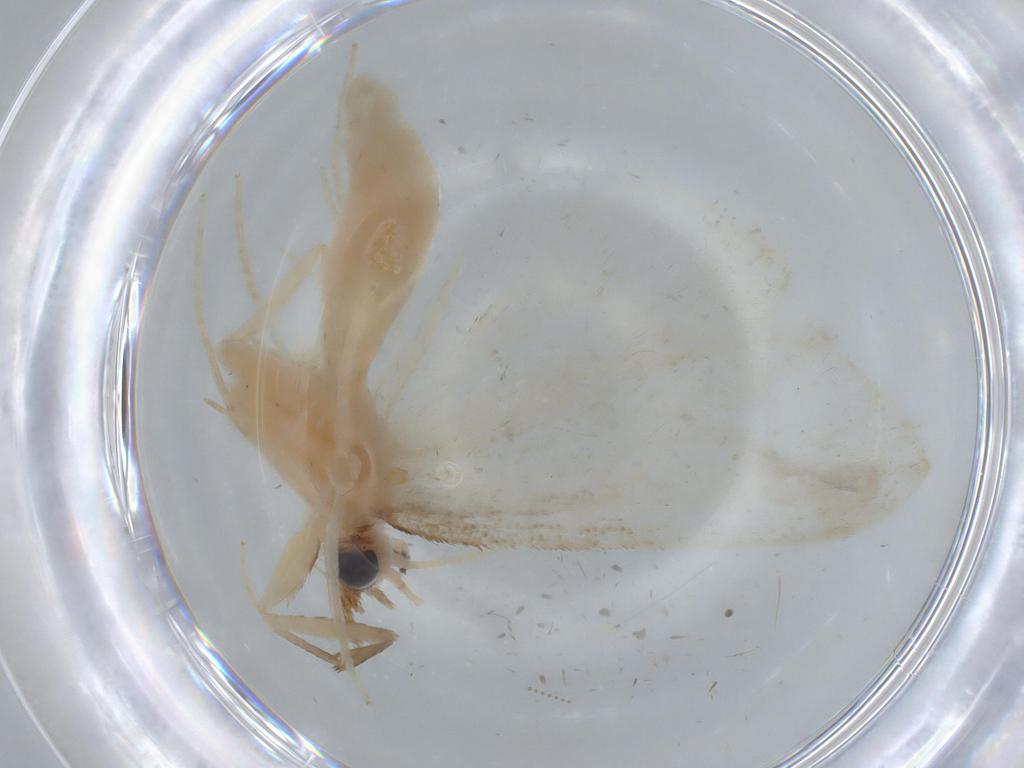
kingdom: Animalia
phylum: Arthropoda
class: Insecta
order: Lepidoptera
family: Crambidae
